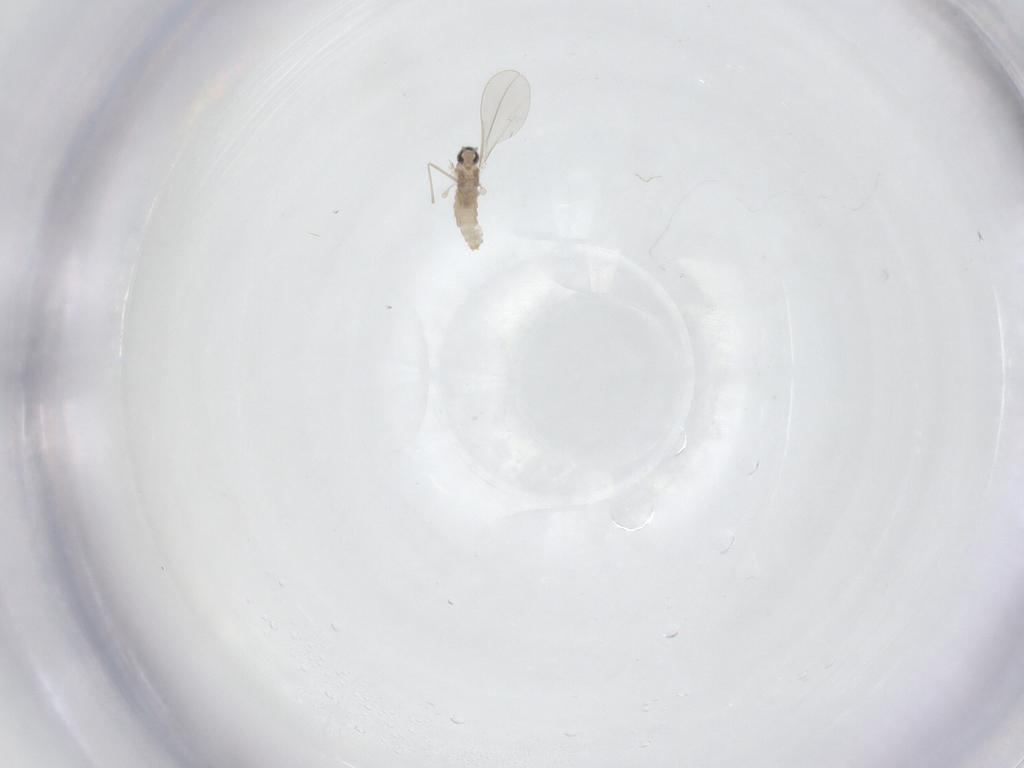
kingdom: Animalia
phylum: Arthropoda
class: Insecta
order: Diptera
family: Cecidomyiidae
